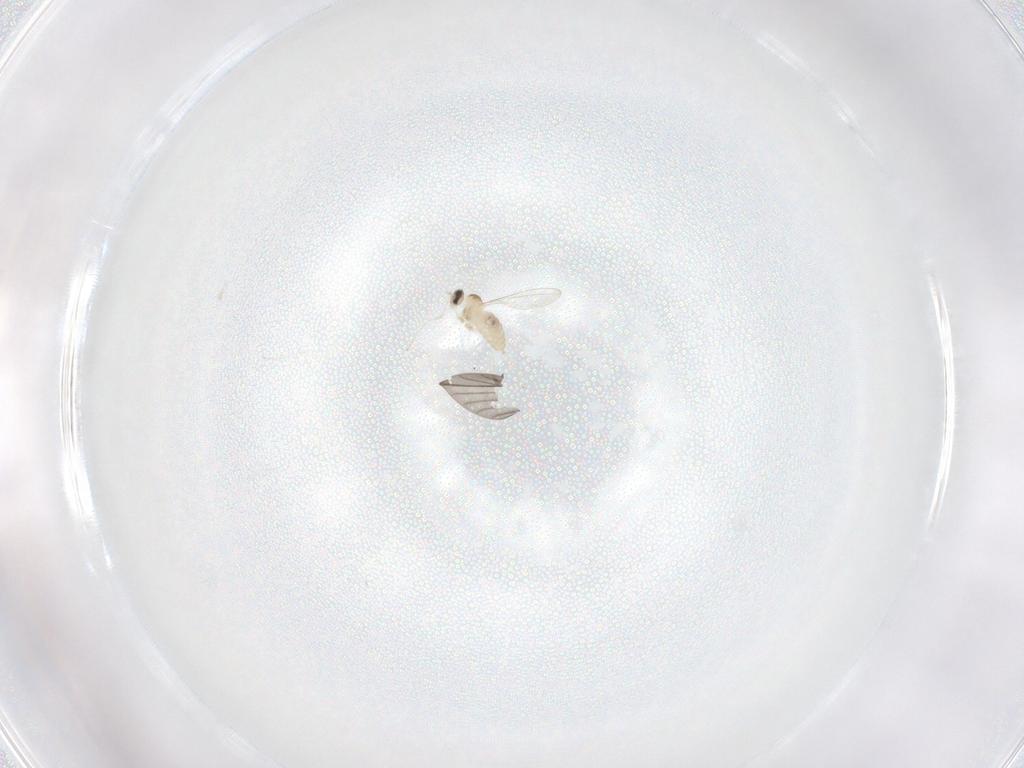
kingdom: Animalia
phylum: Arthropoda
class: Insecta
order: Diptera
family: Cecidomyiidae
